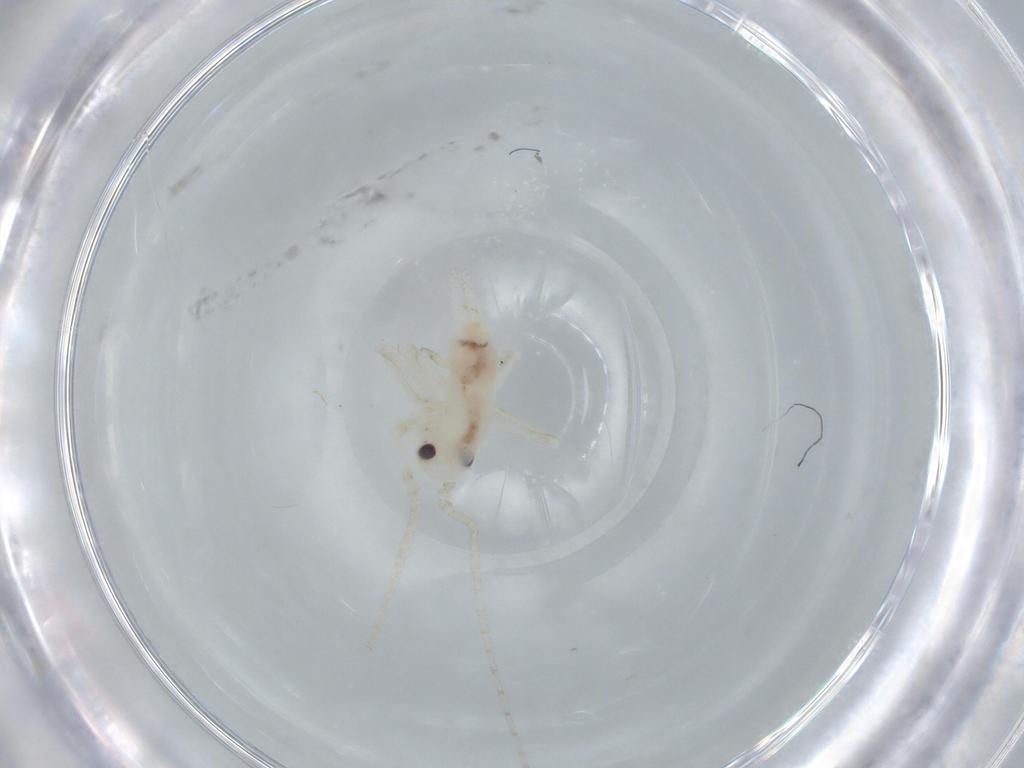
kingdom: Animalia
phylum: Arthropoda
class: Insecta
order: Orthoptera
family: Trigonidiidae
